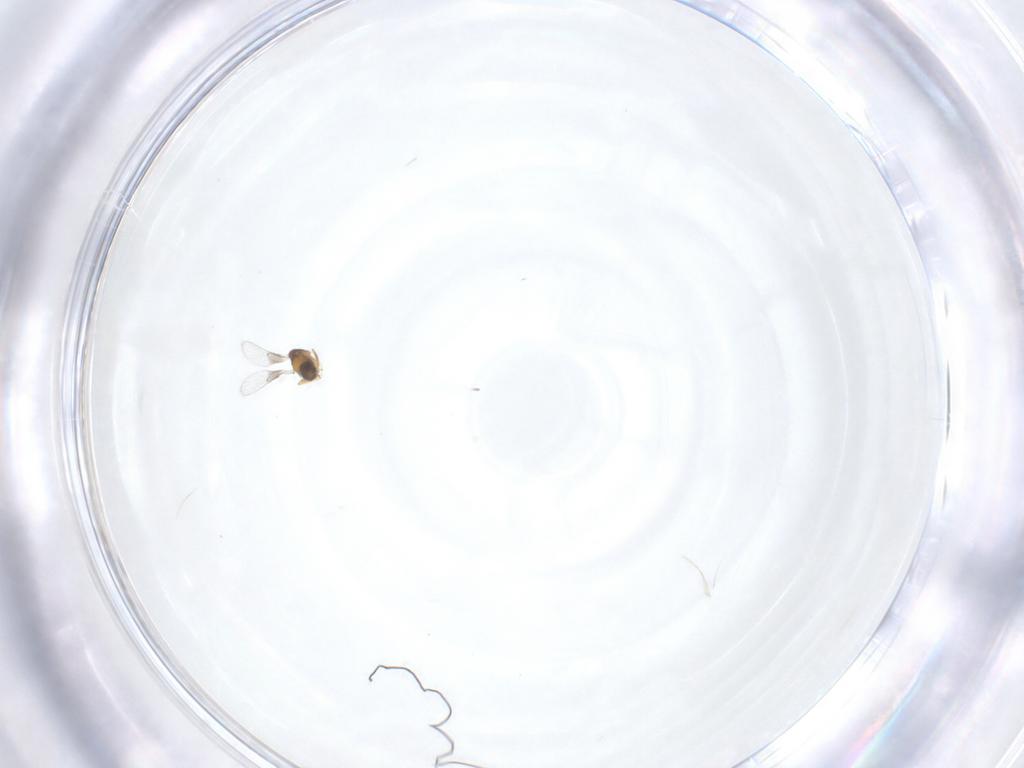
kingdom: Animalia
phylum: Arthropoda
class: Insecta
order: Hymenoptera
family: Trichogrammatidae
